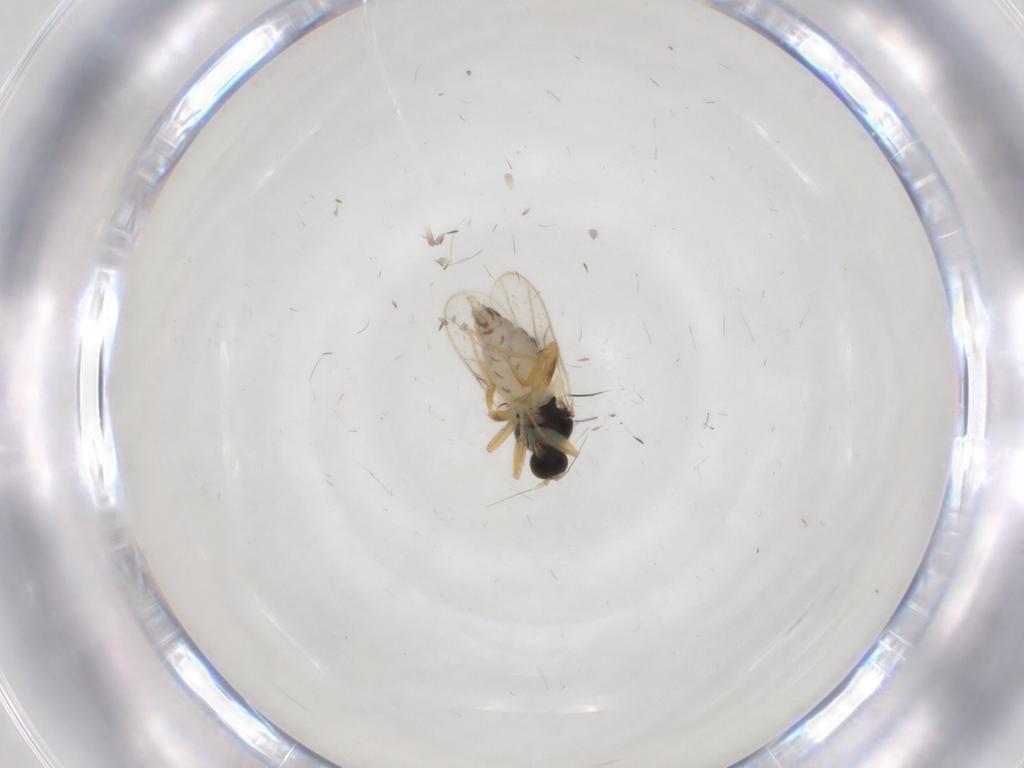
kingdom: Animalia
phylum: Arthropoda
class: Insecta
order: Diptera
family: Hybotidae
